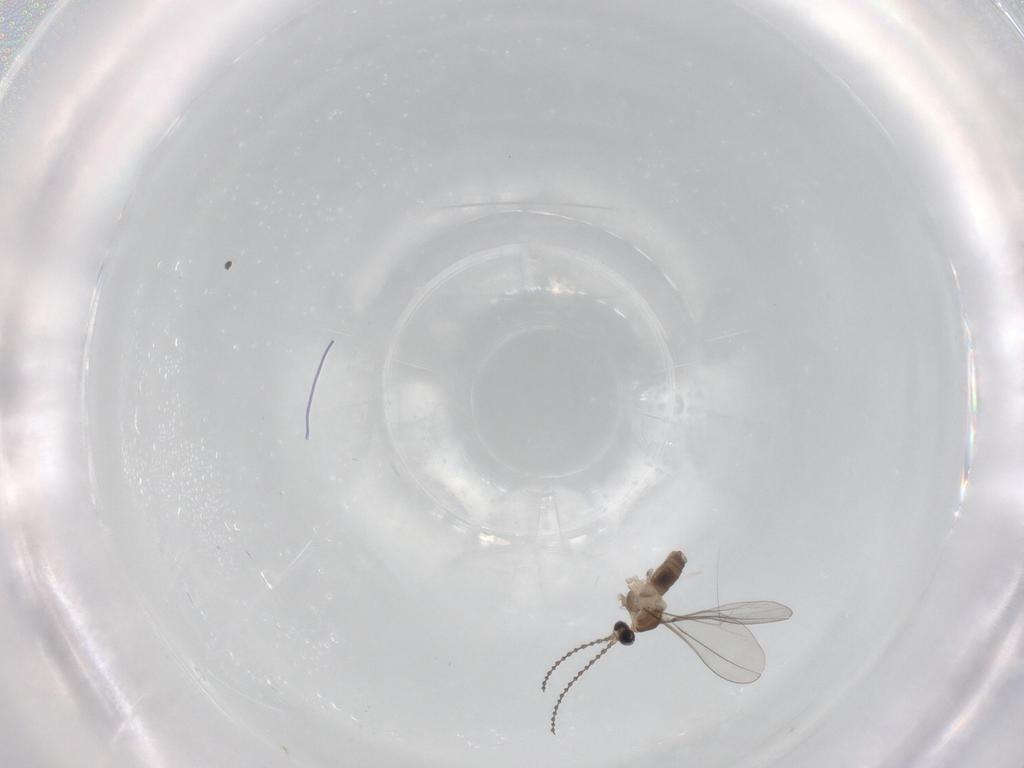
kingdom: Animalia
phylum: Arthropoda
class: Insecta
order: Diptera
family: Cecidomyiidae
